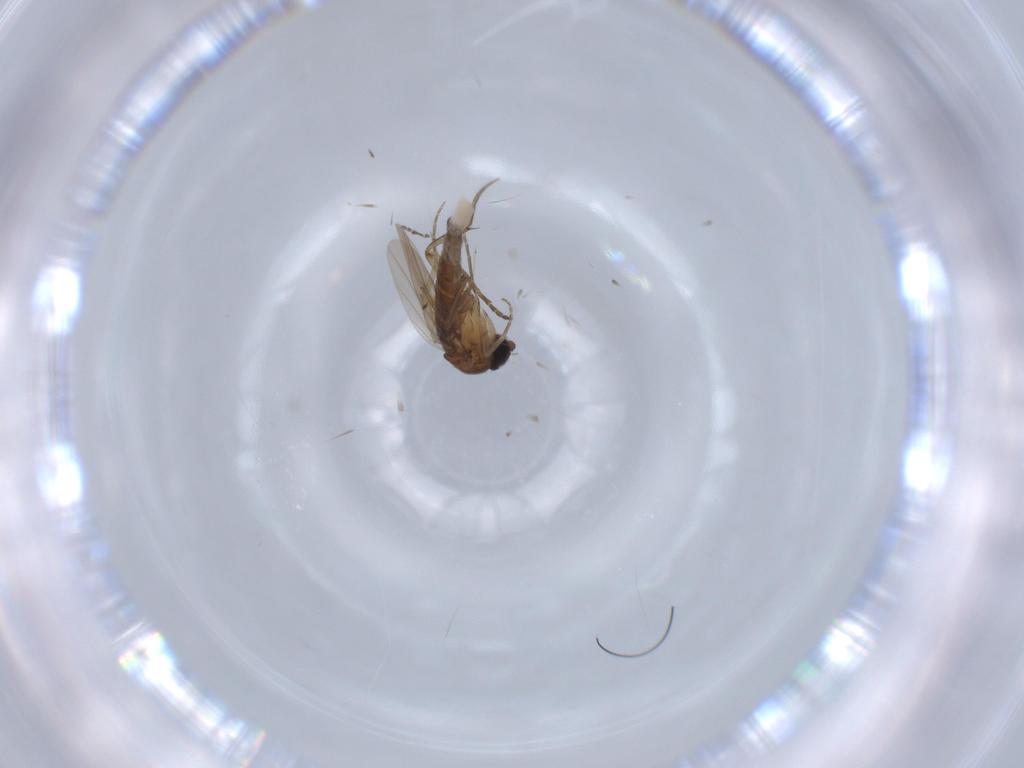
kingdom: Animalia
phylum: Arthropoda
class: Insecta
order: Diptera
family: Phoridae
